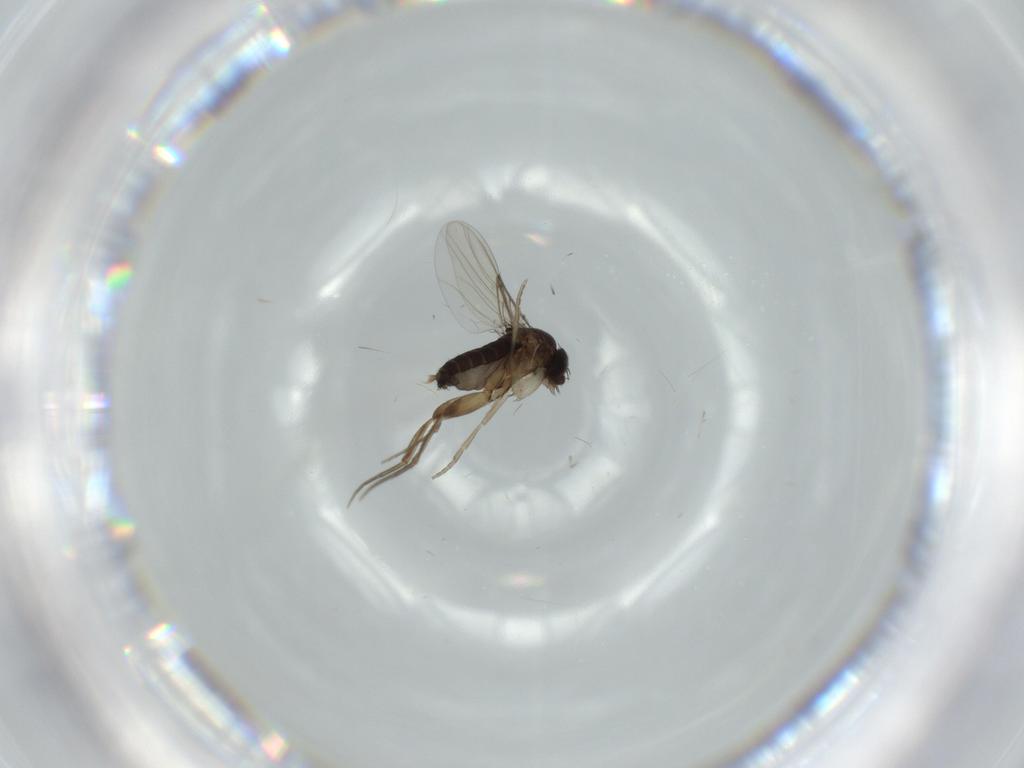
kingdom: Animalia
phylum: Arthropoda
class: Insecta
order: Diptera
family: Phoridae
